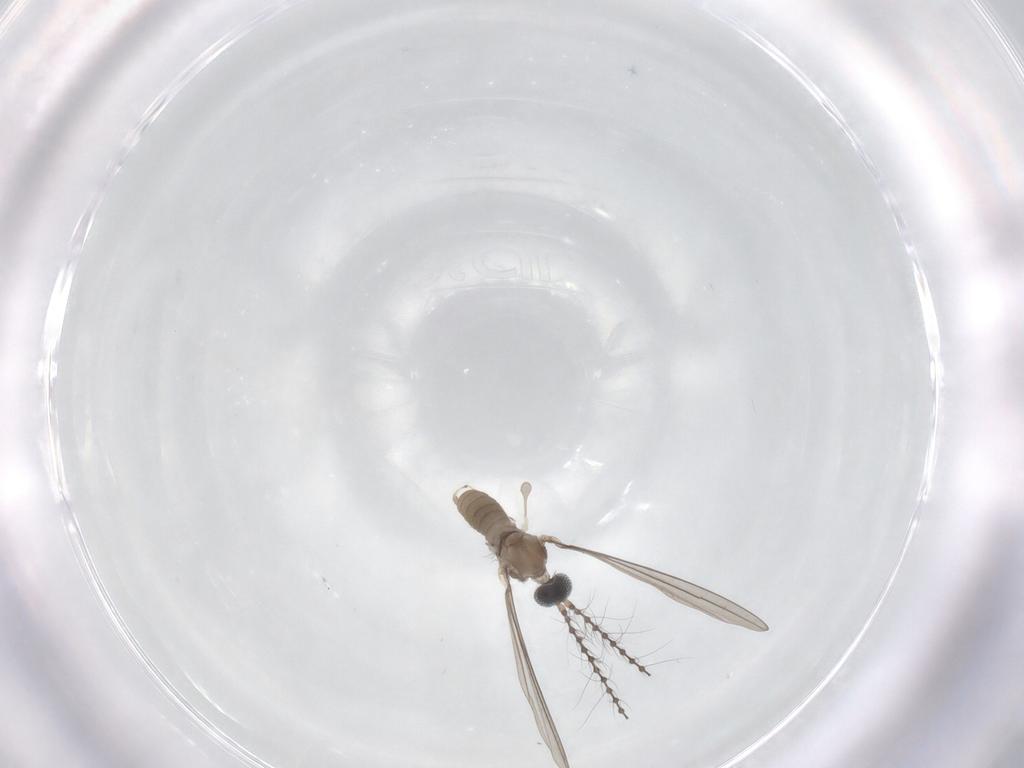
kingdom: Animalia
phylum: Arthropoda
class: Insecta
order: Diptera
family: Cecidomyiidae
